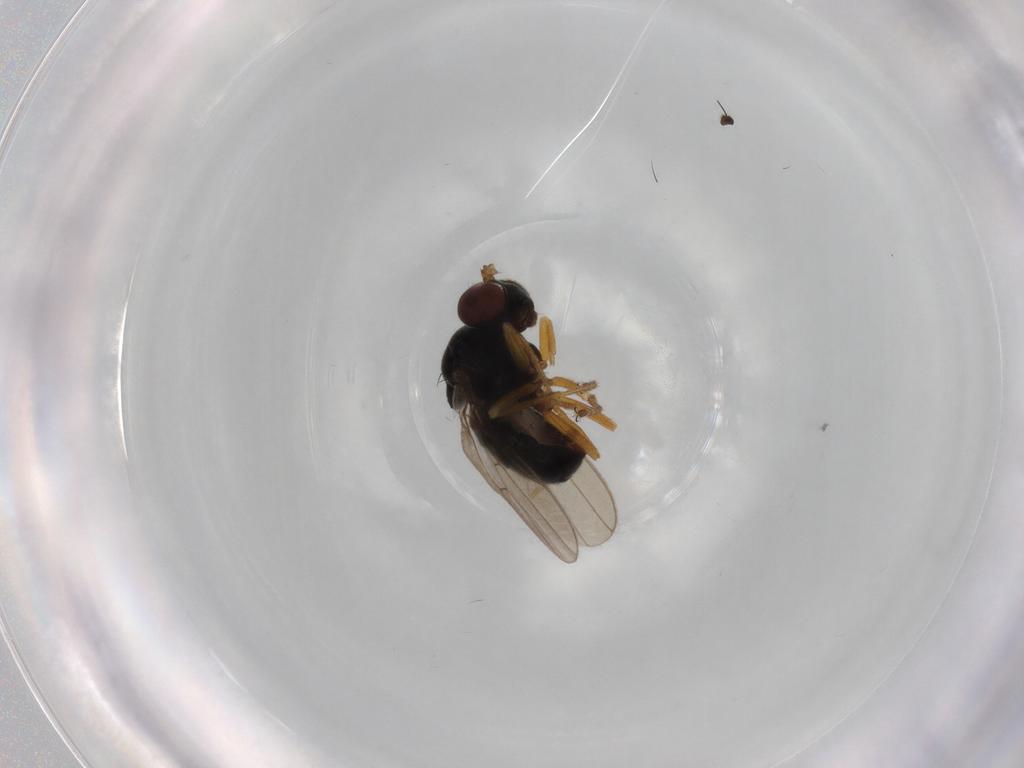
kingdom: Animalia
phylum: Arthropoda
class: Insecta
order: Diptera
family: Ephydridae
